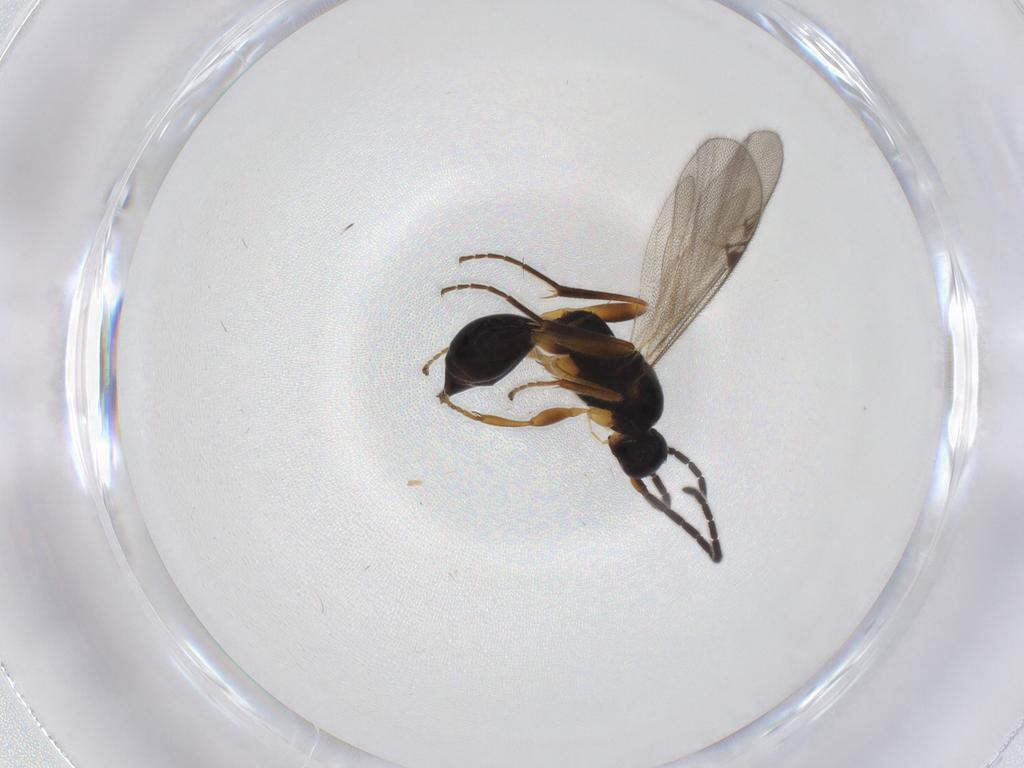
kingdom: Animalia
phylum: Arthropoda
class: Insecta
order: Hymenoptera
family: Proctotrupidae
